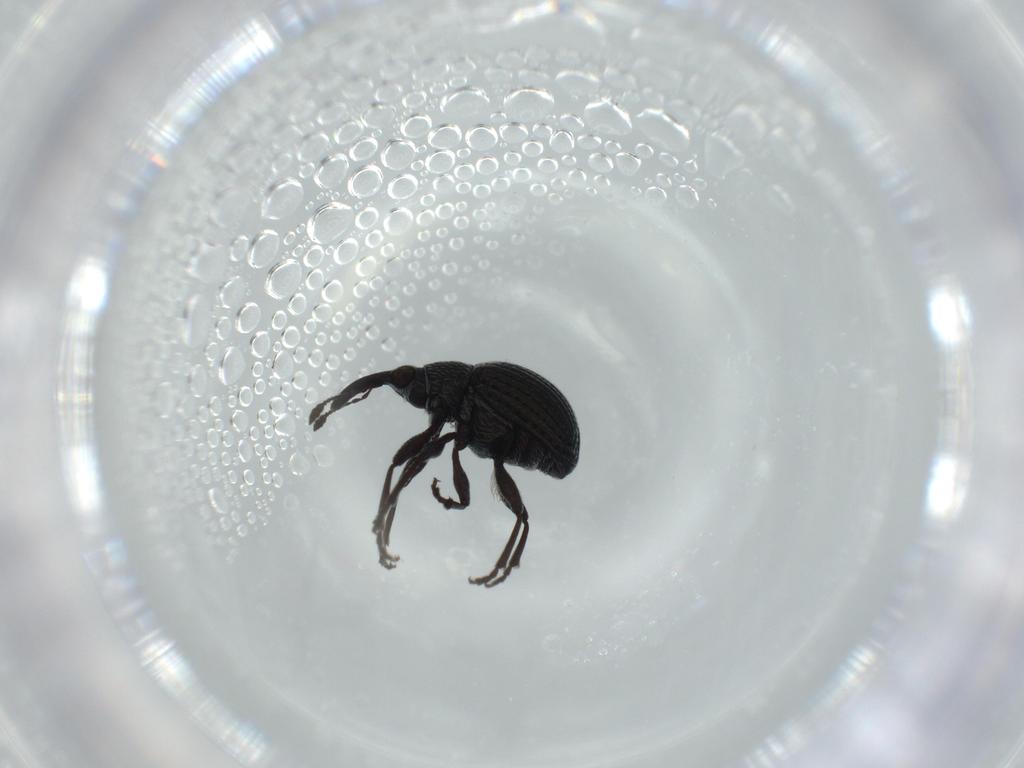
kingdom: Animalia
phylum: Arthropoda
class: Insecta
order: Coleoptera
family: Brentidae
